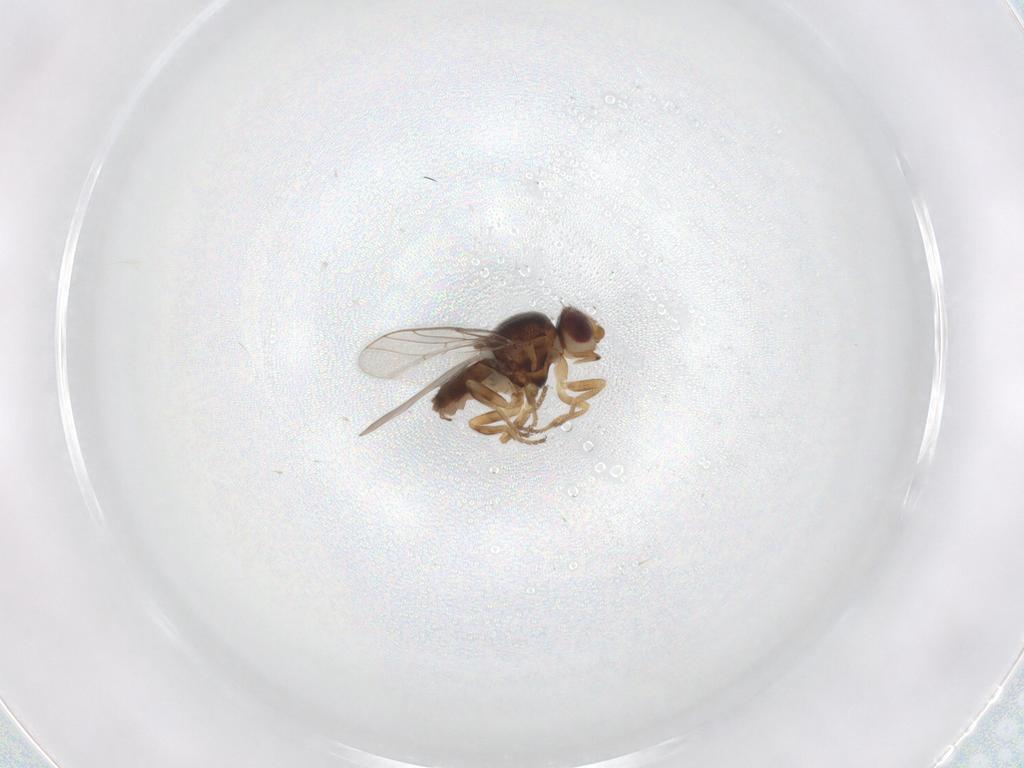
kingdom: Animalia
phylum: Arthropoda
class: Insecta
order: Diptera
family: Chloropidae
